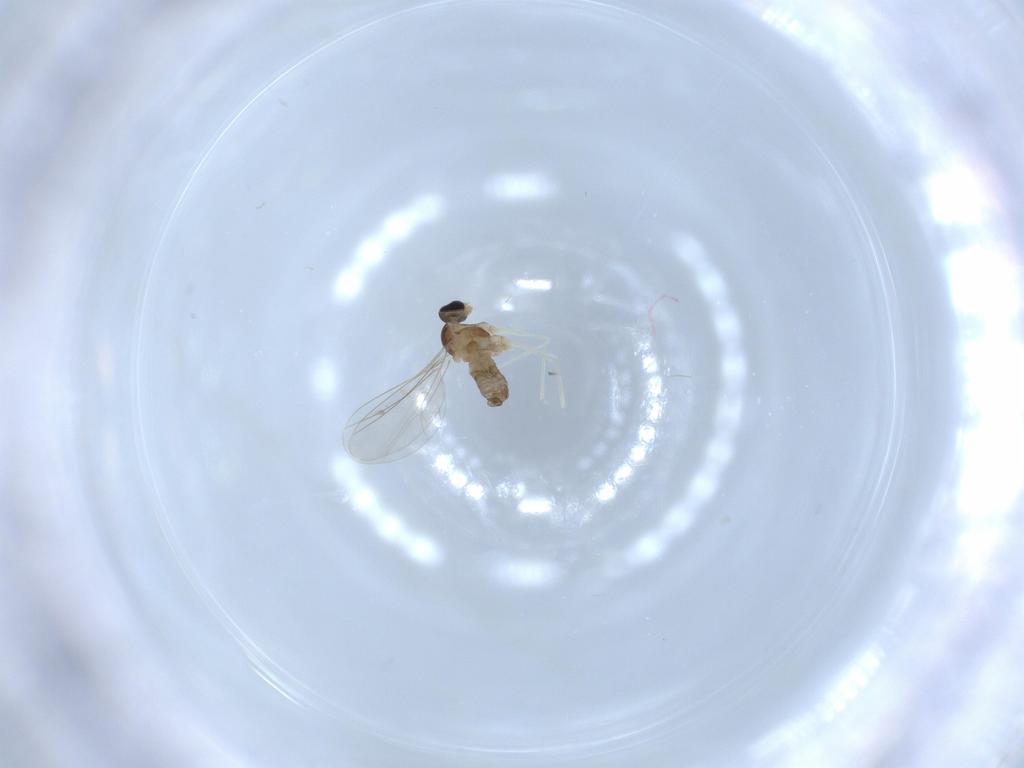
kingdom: Animalia
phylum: Arthropoda
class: Insecta
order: Diptera
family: Cecidomyiidae
